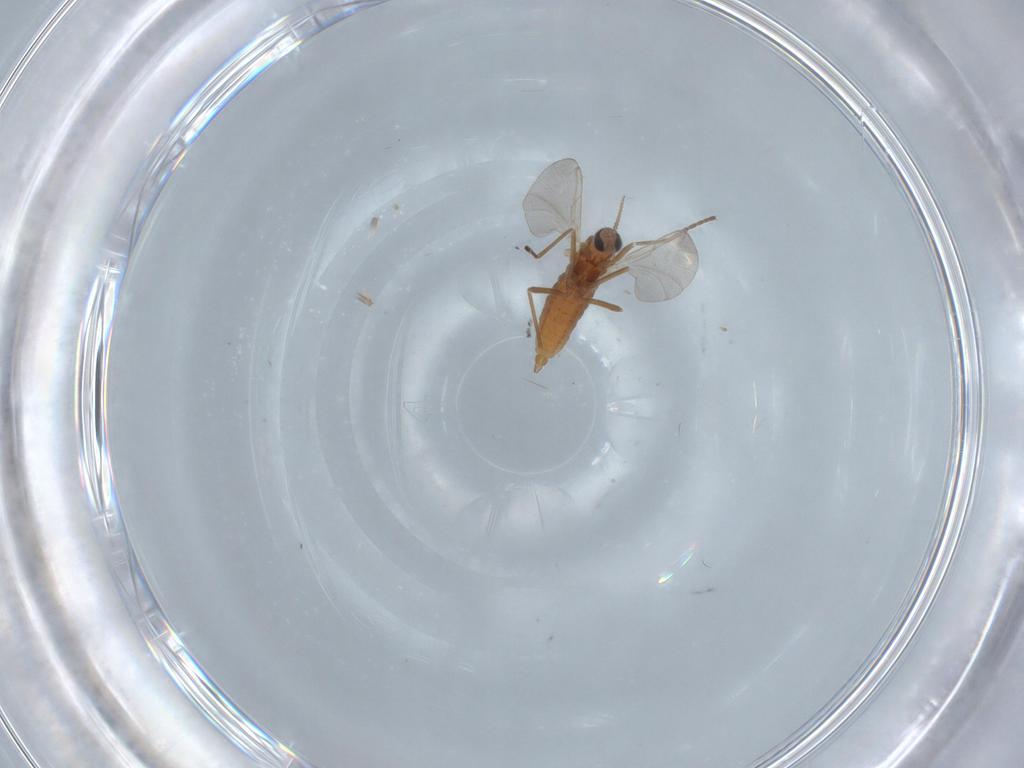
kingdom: Animalia
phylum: Arthropoda
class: Insecta
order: Diptera
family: Cecidomyiidae
